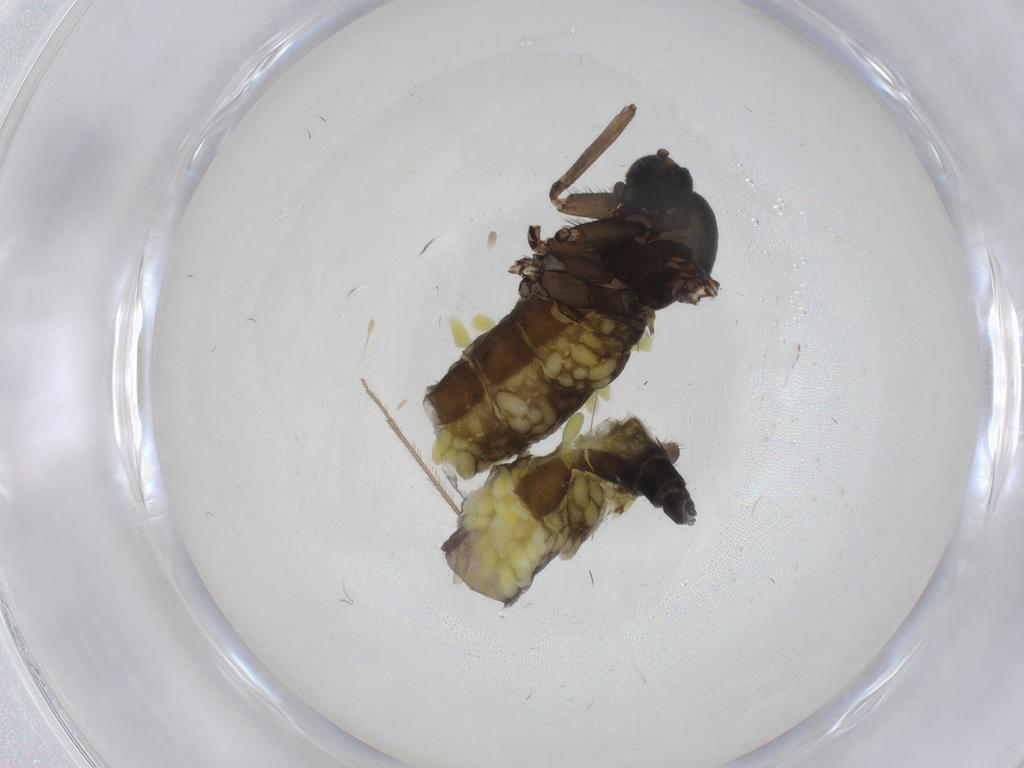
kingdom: Animalia
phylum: Arthropoda
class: Insecta
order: Diptera
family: Sciaridae
